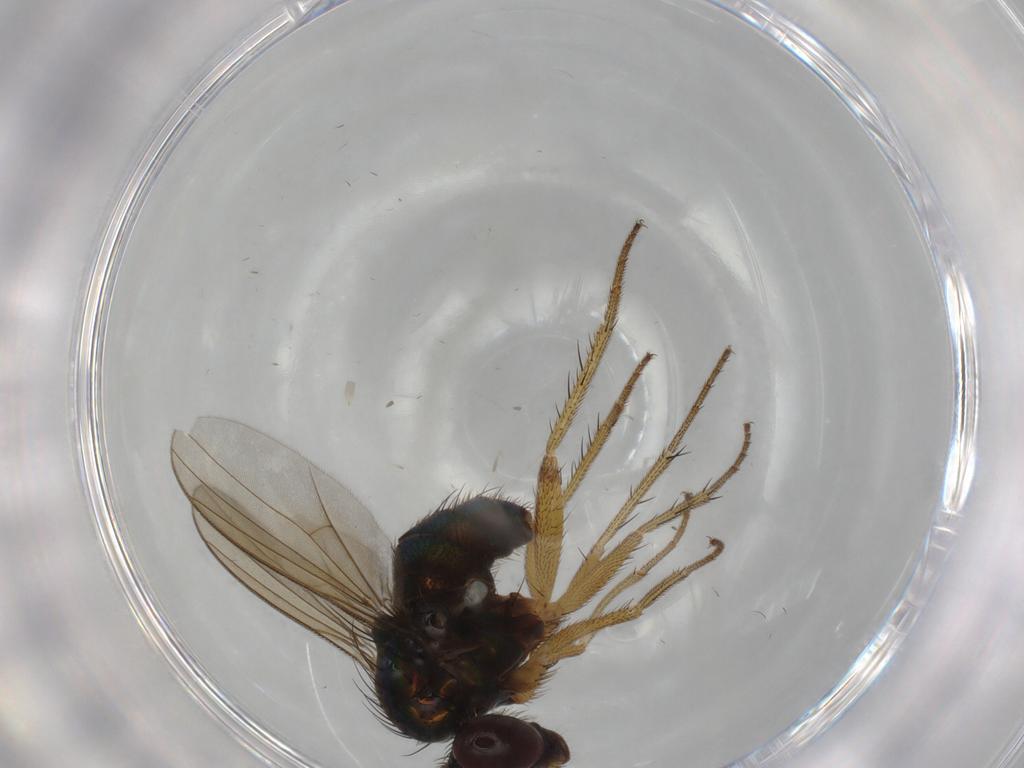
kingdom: Animalia
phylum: Arthropoda
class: Insecta
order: Diptera
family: Dolichopodidae
